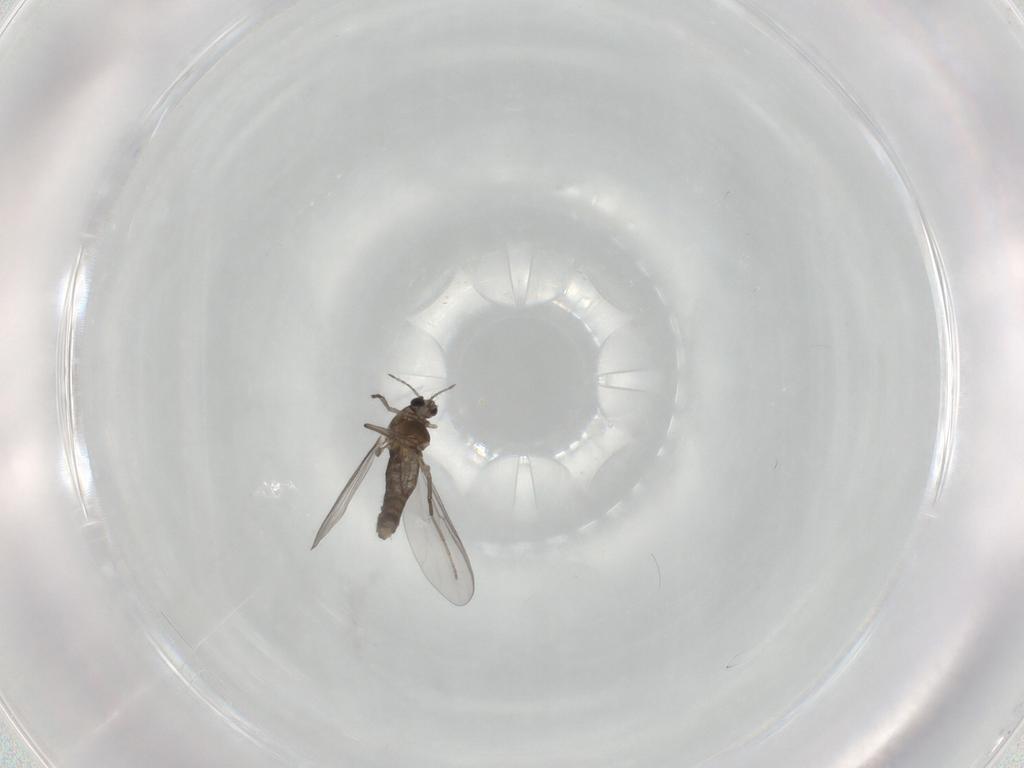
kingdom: Animalia
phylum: Arthropoda
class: Insecta
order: Diptera
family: Chironomidae
